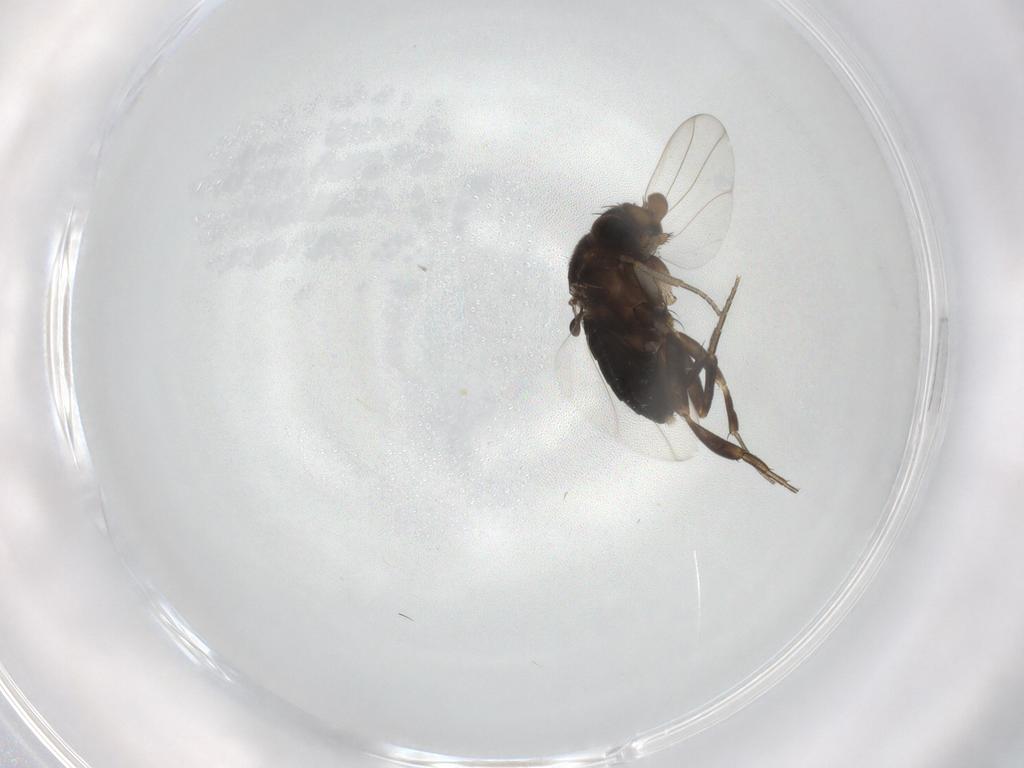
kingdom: Animalia
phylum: Arthropoda
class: Insecta
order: Diptera
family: Phoridae
